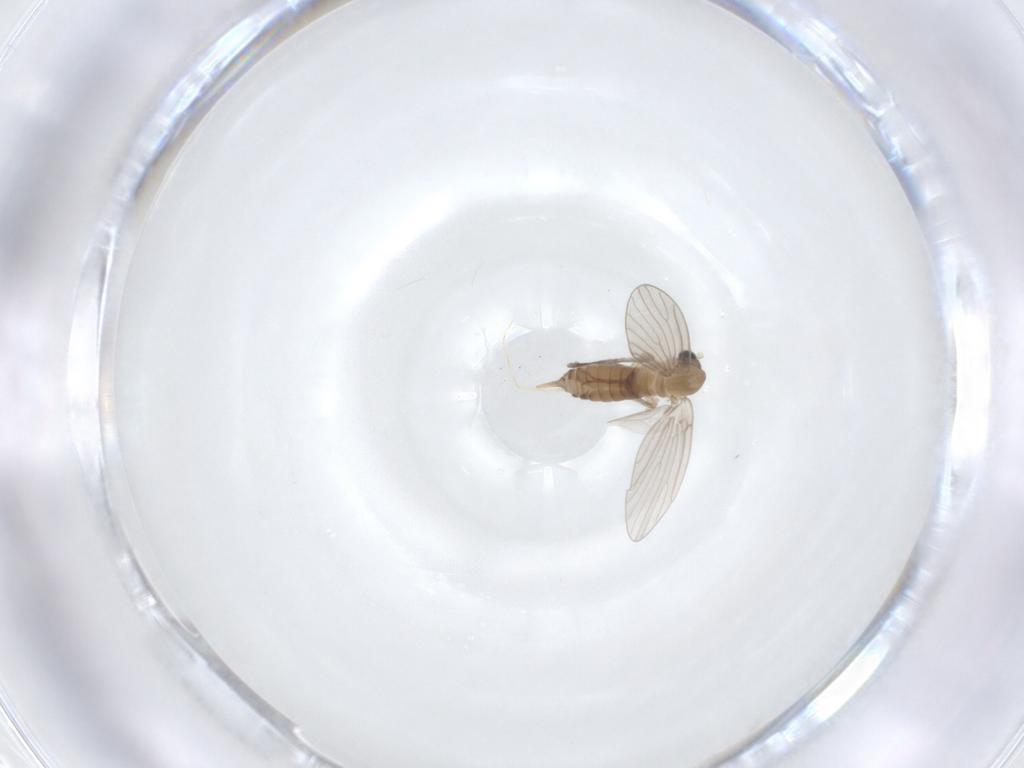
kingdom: Animalia
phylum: Arthropoda
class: Insecta
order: Diptera
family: Cecidomyiidae
